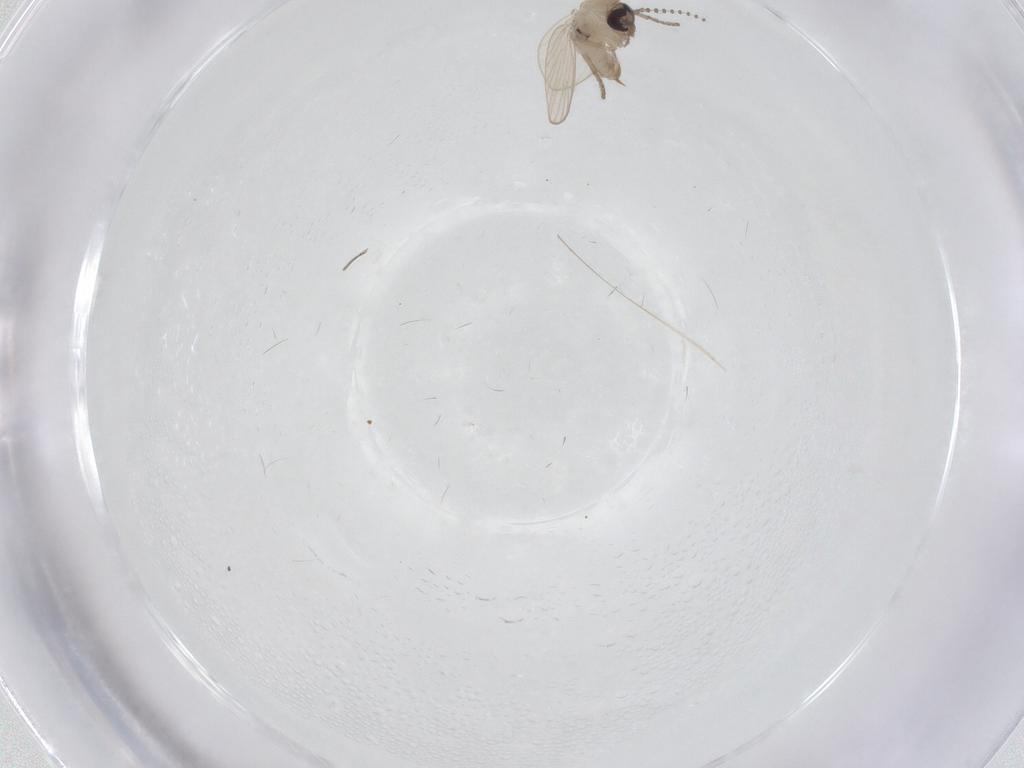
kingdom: Animalia
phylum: Arthropoda
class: Insecta
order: Diptera
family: Psychodidae
